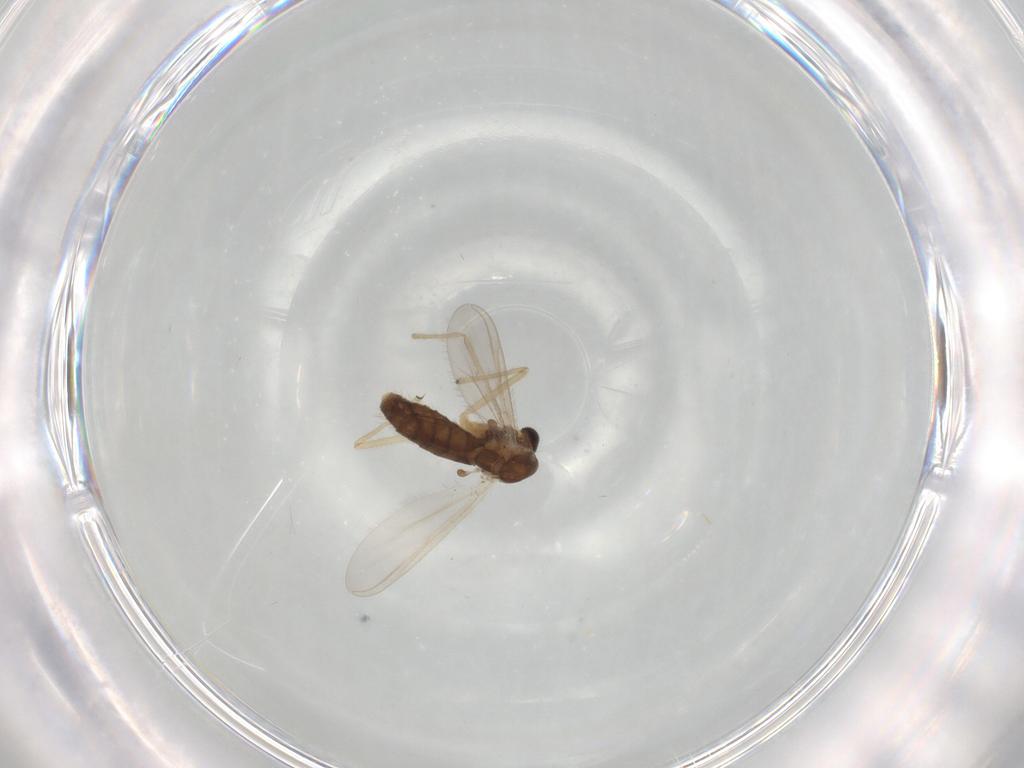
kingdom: Animalia
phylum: Arthropoda
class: Insecta
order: Diptera
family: Chironomidae
